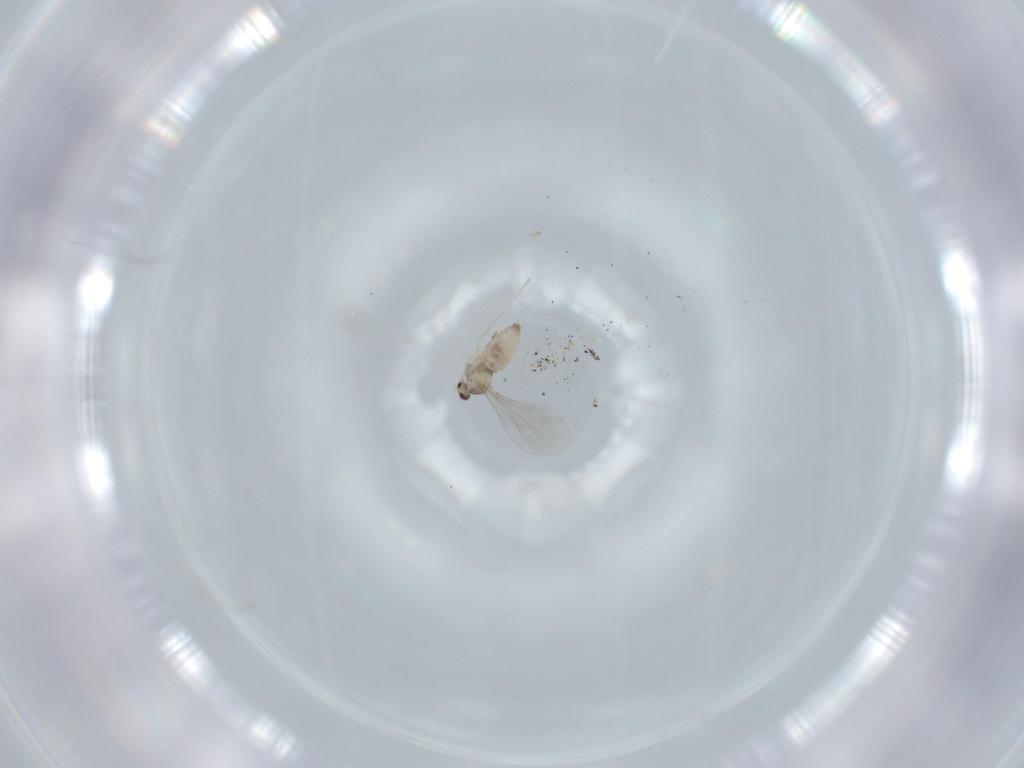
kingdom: Animalia
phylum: Arthropoda
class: Insecta
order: Diptera
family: Cecidomyiidae
